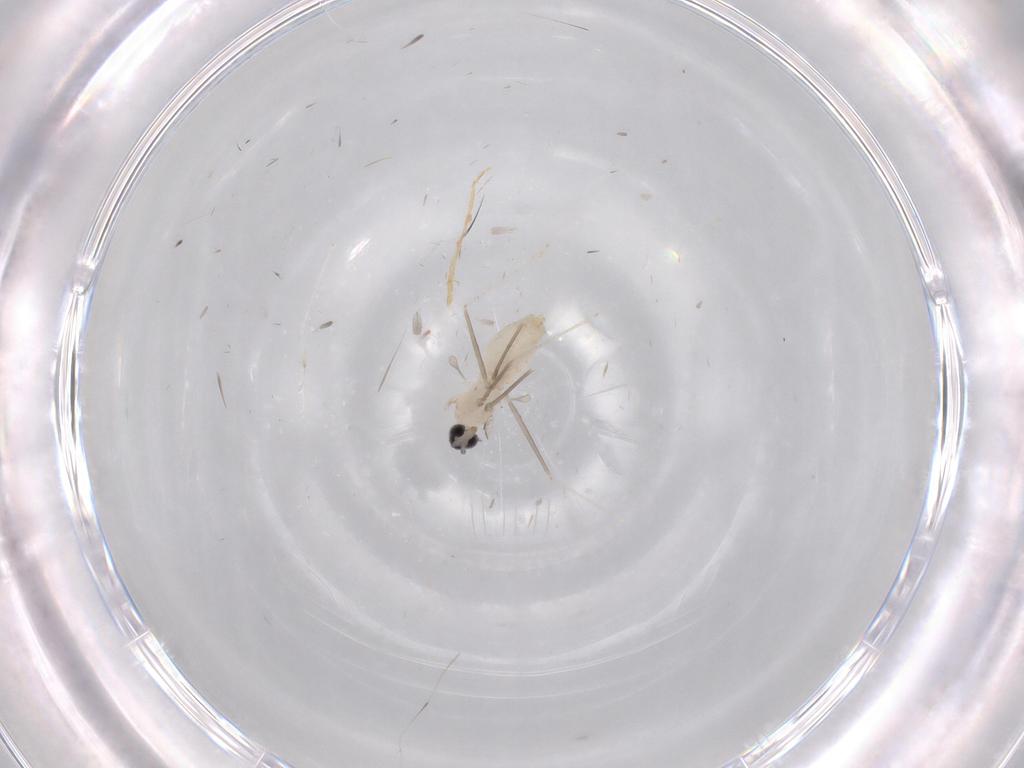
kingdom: Animalia
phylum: Arthropoda
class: Insecta
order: Diptera
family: Cecidomyiidae
